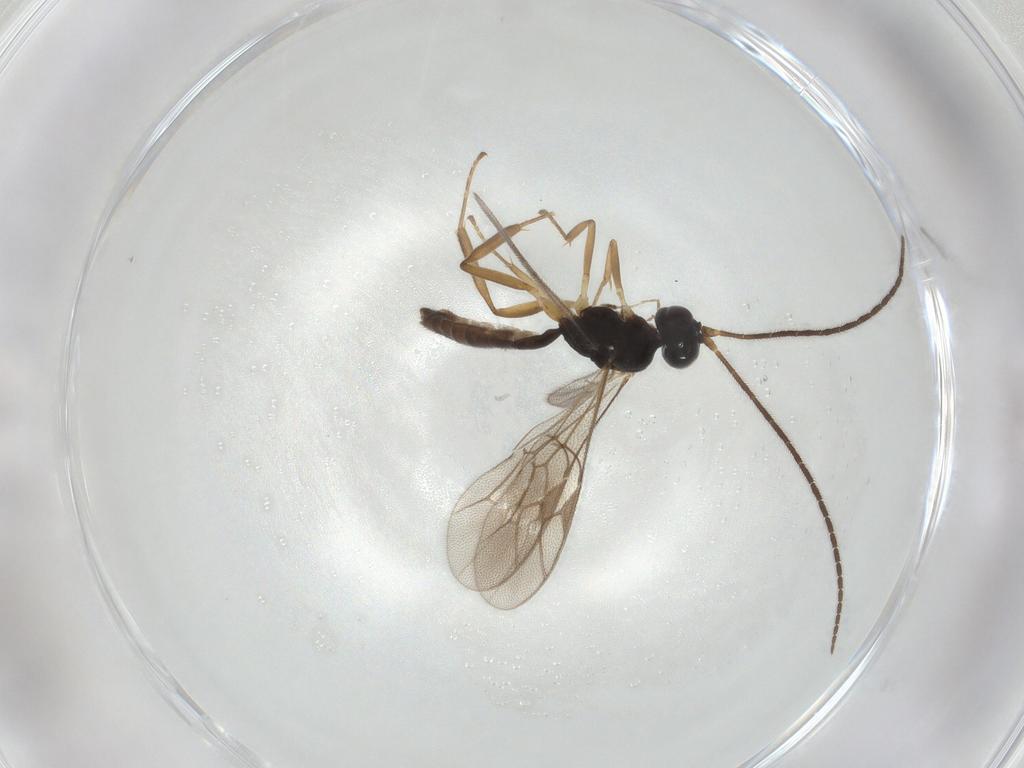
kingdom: Animalia
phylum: Arthropoda
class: Insecta
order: Hymenoptera
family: Ichneumonidae
